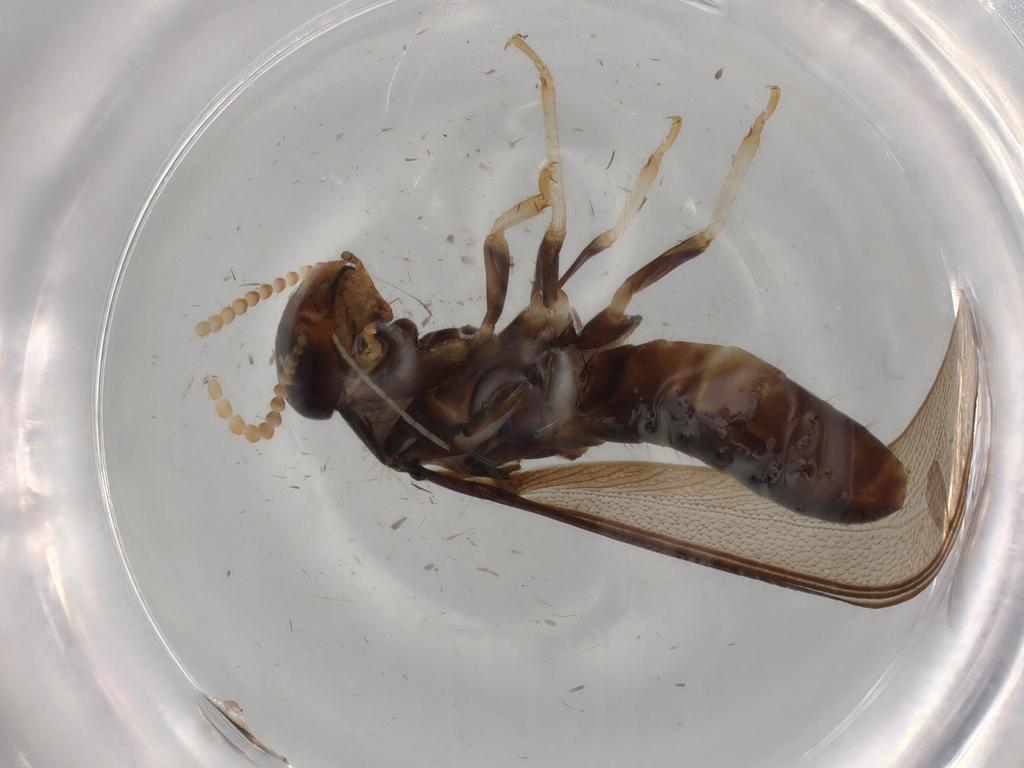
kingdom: Animalia
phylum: Arthropoda
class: Insecta
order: Blattodea
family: Kalotermitidae
